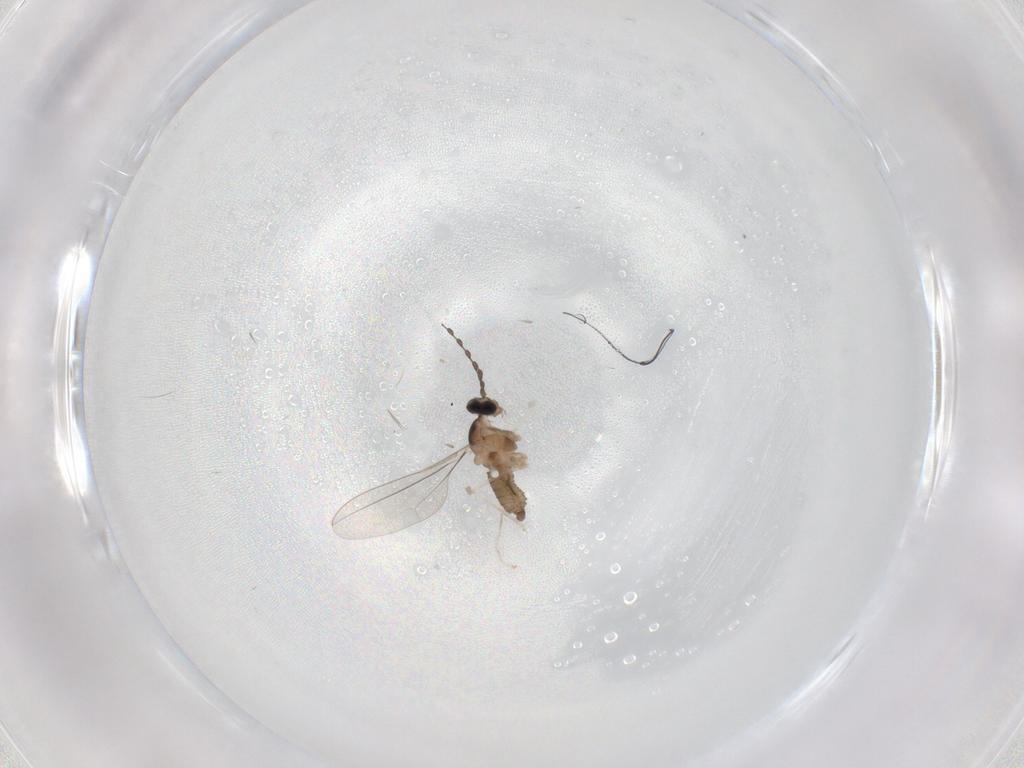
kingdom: Animalia
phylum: Arthropoda
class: Insecta
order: Diptera
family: Cecidomyiidae
